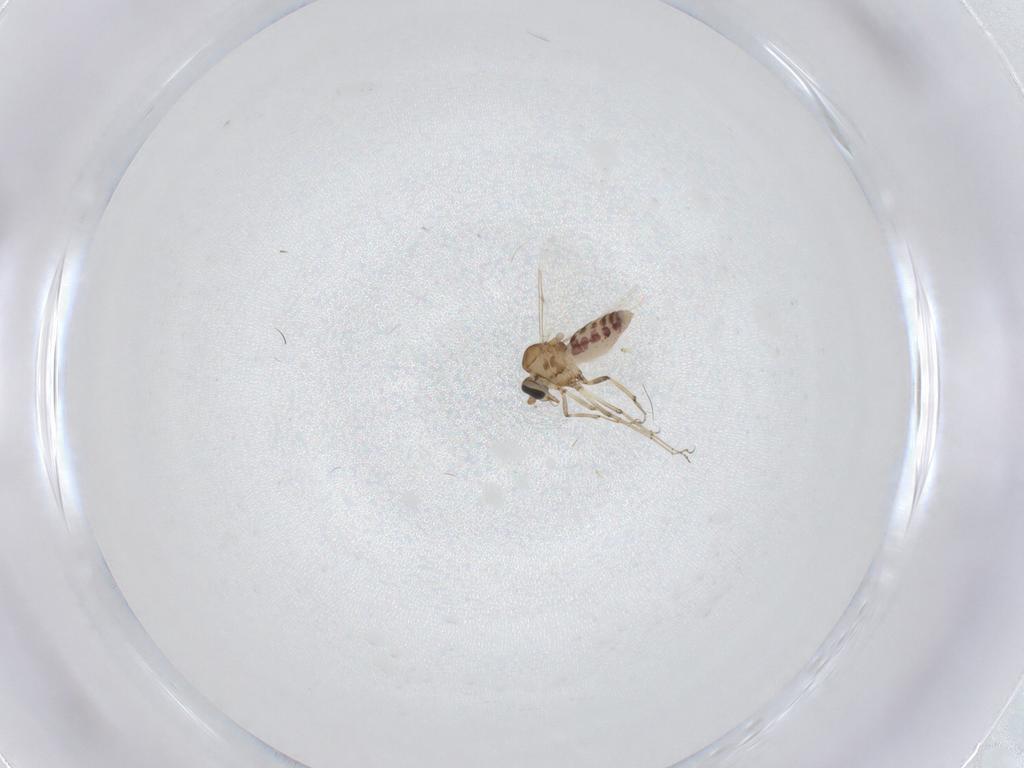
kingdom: Animalia
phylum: Arthropoda
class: Insecta
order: Diptera
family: Ceratopogonidae
